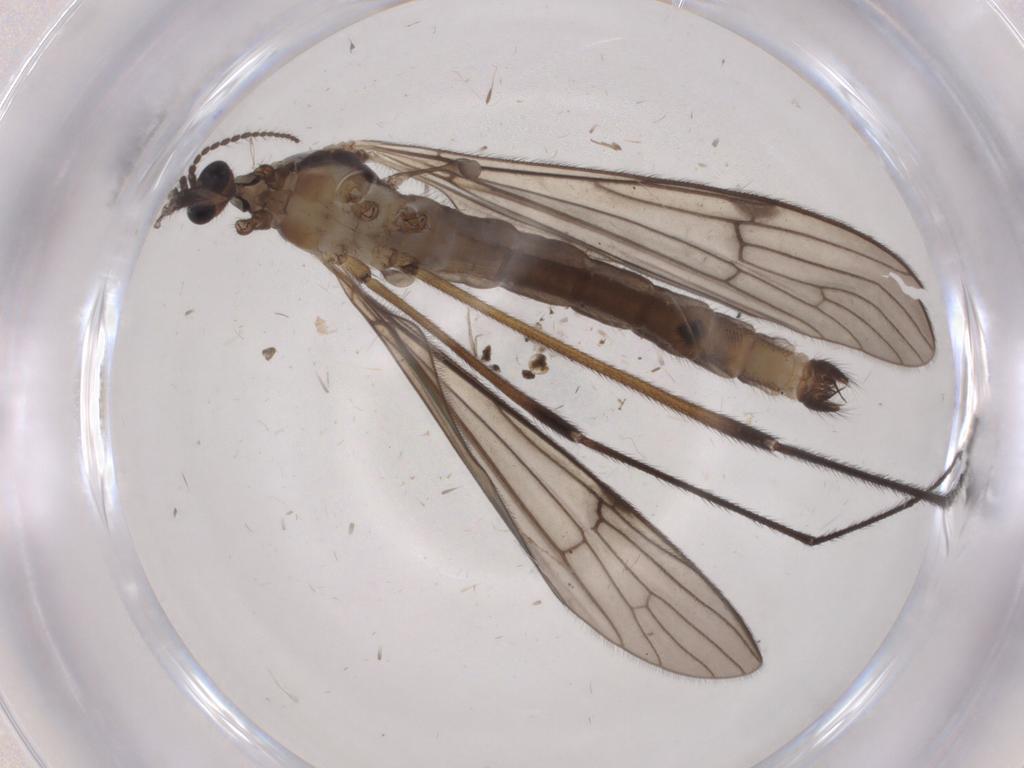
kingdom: Animalia
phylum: Arthropoda
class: Insecta
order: Diptera
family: Limoniidae
